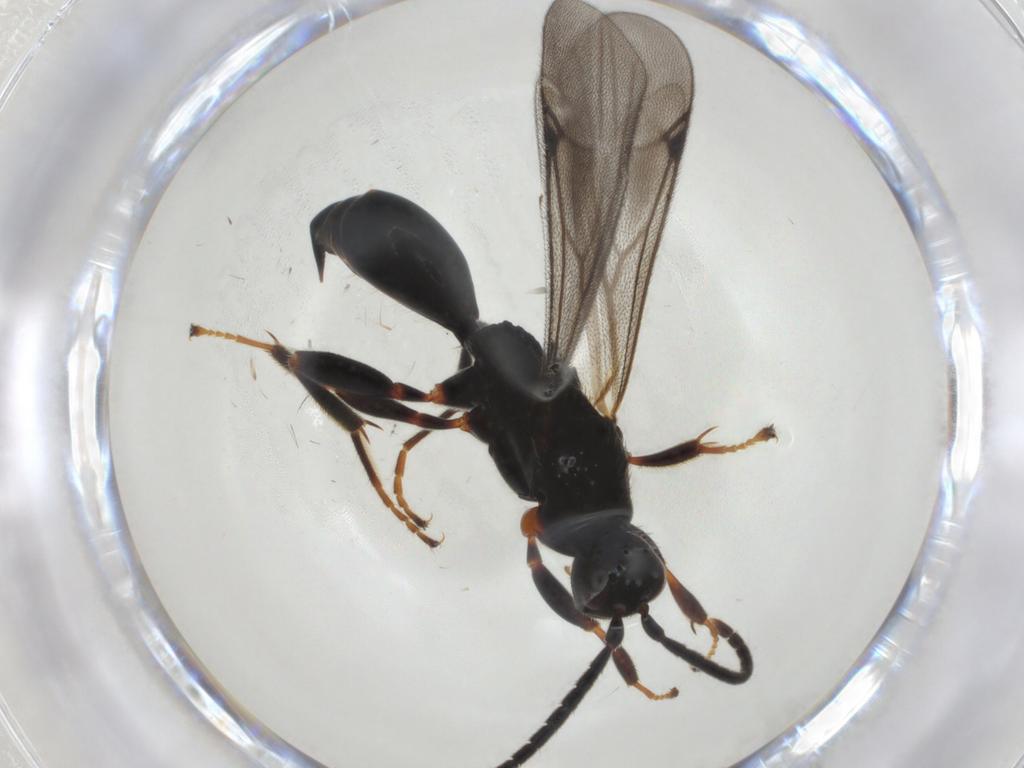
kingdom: Animalia
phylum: Arthropoda
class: Insecta
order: Hymenoptera
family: Proctotrupidae
